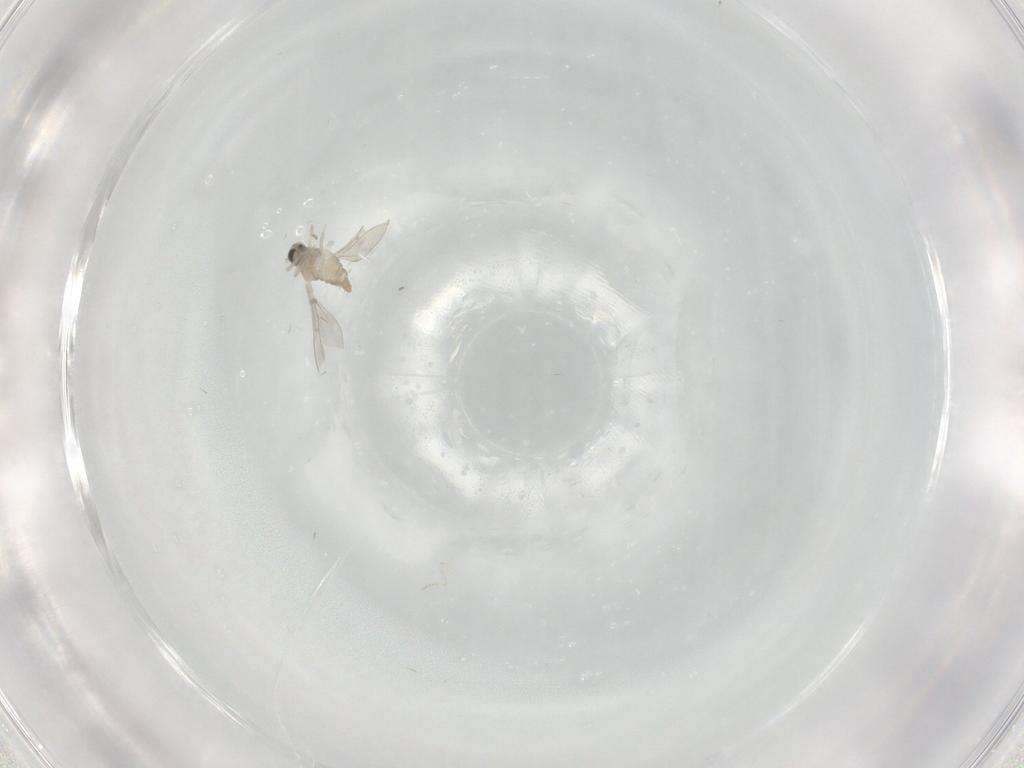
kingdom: Animalia
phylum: Arthropoda
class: Insecta
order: Diptera
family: Cecidomyiidae
